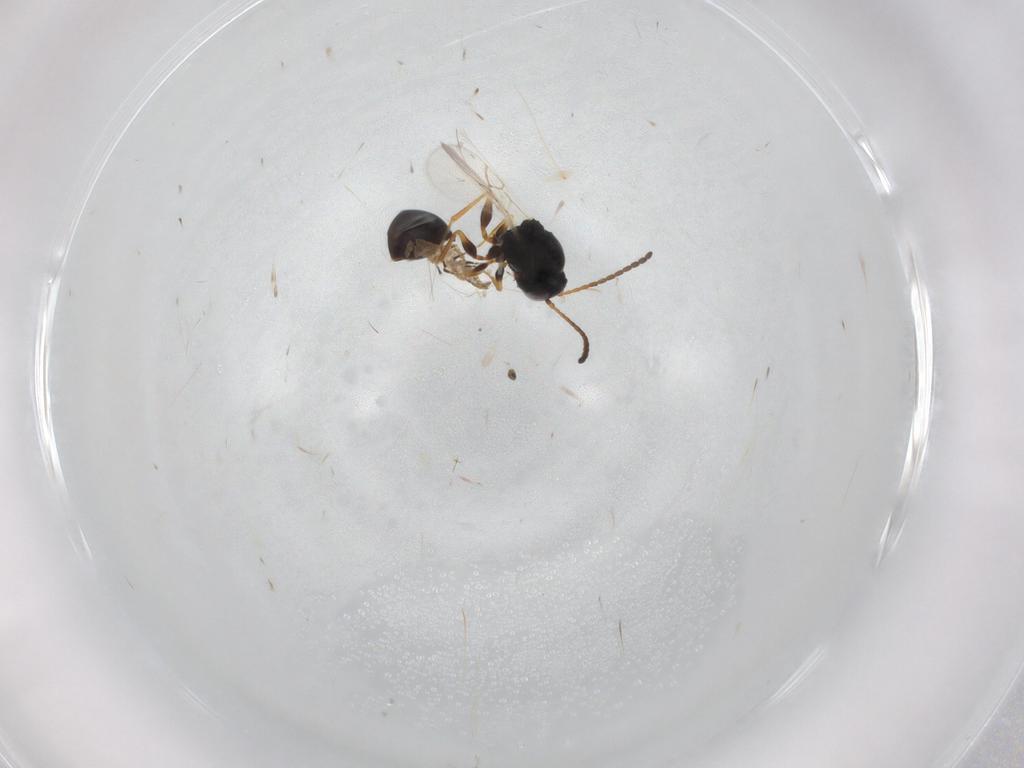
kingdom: Animalia
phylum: Arthropoda
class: Insecta
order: Hymenoptera
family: Figitidae
